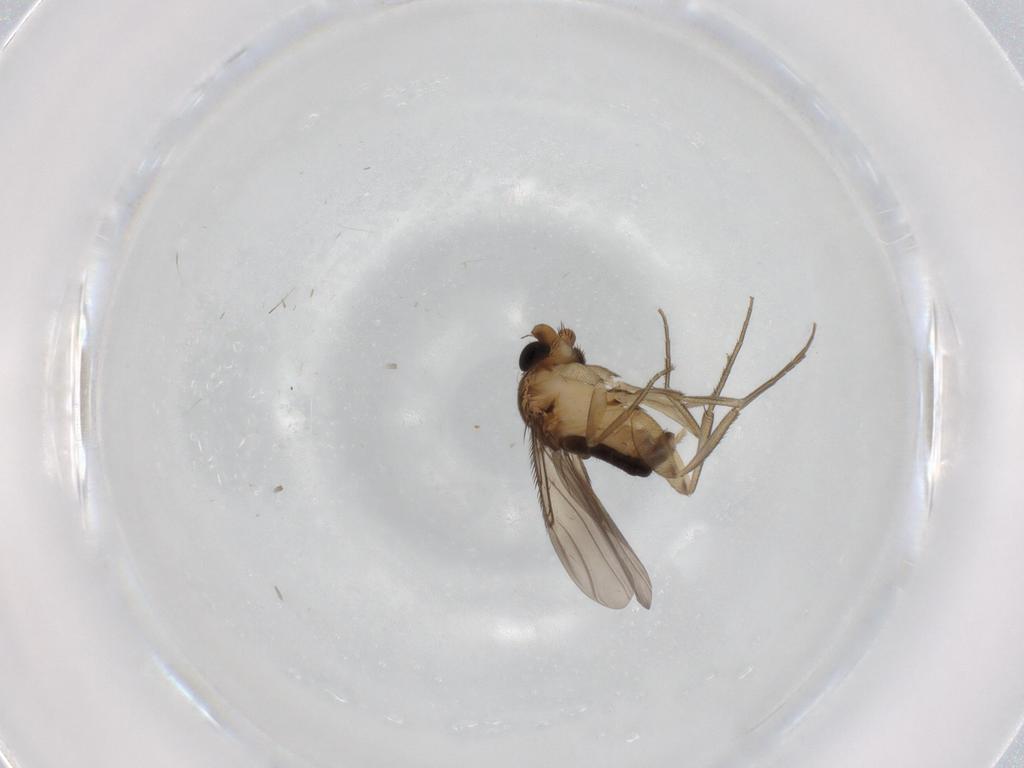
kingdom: Animalia
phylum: Arthropoda
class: Insecta
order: Diptera
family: Phoridae
